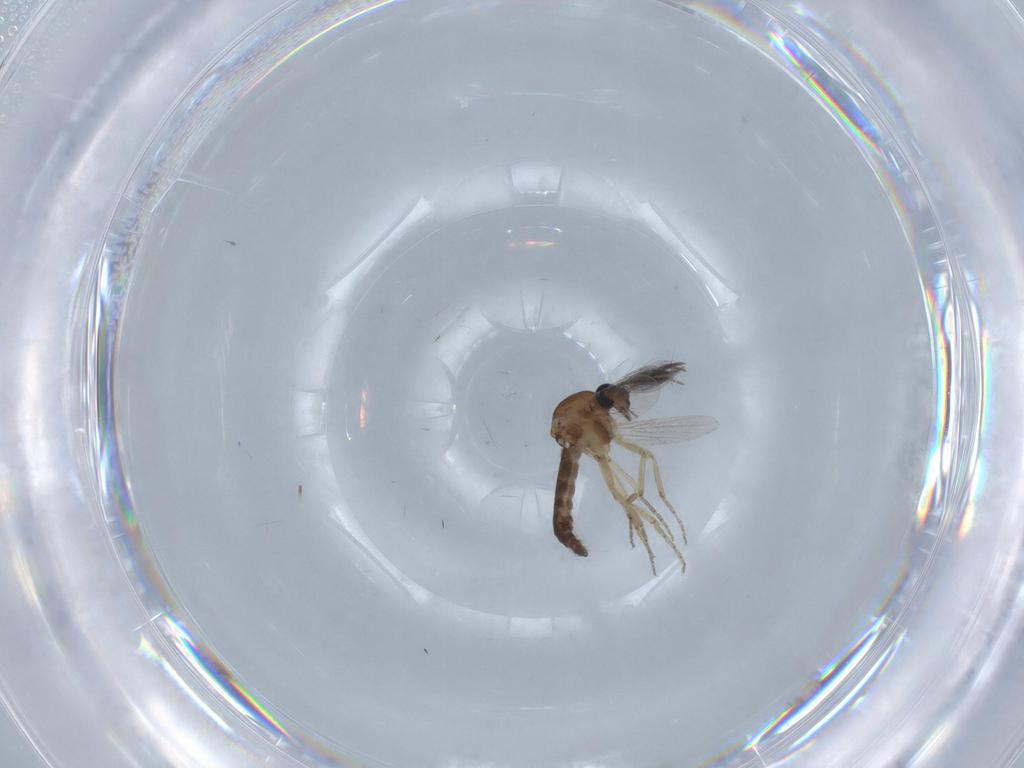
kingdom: Animalia
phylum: Arthropoda
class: Insecta
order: Diptera
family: Ceratopogonidae
